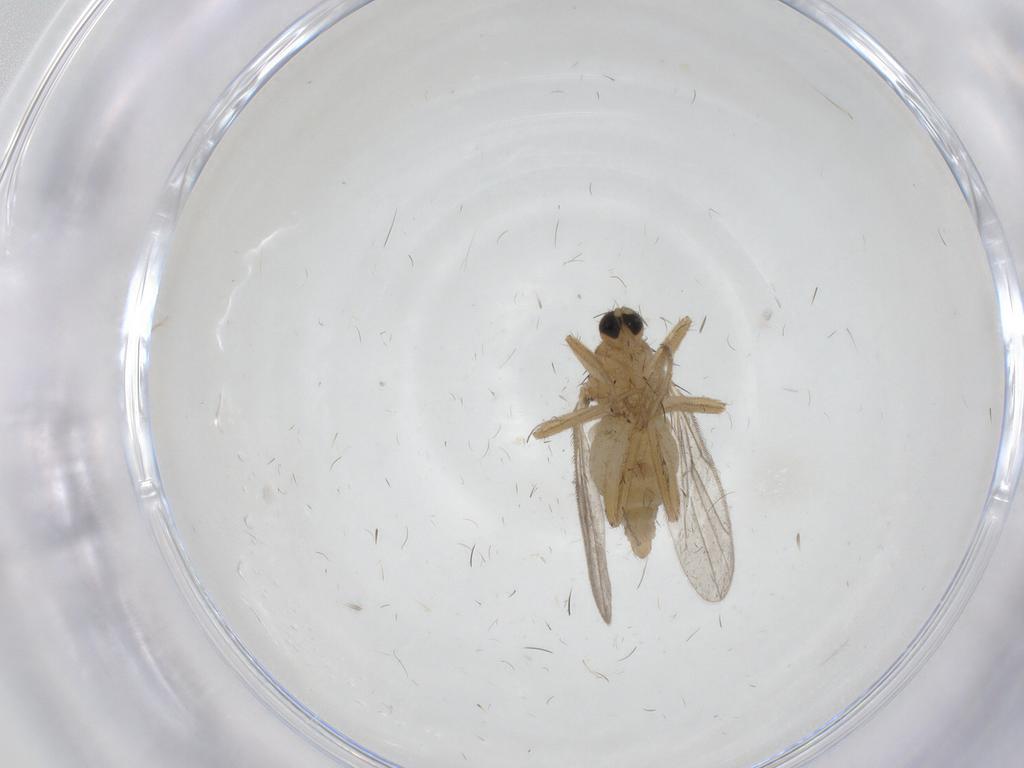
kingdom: Animalia
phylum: Arthropoda
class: Insecta
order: Diptera
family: Hybotidae
